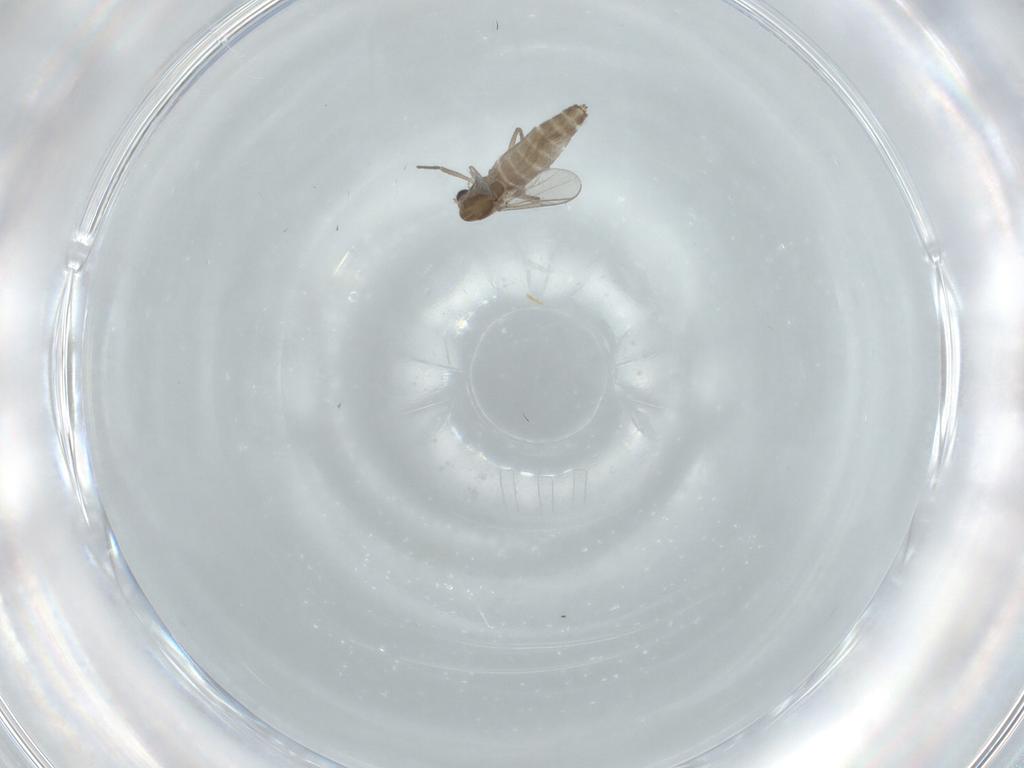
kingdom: Animalia
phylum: Arthropoda
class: Insecta
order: Diptera
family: Chironomidae
